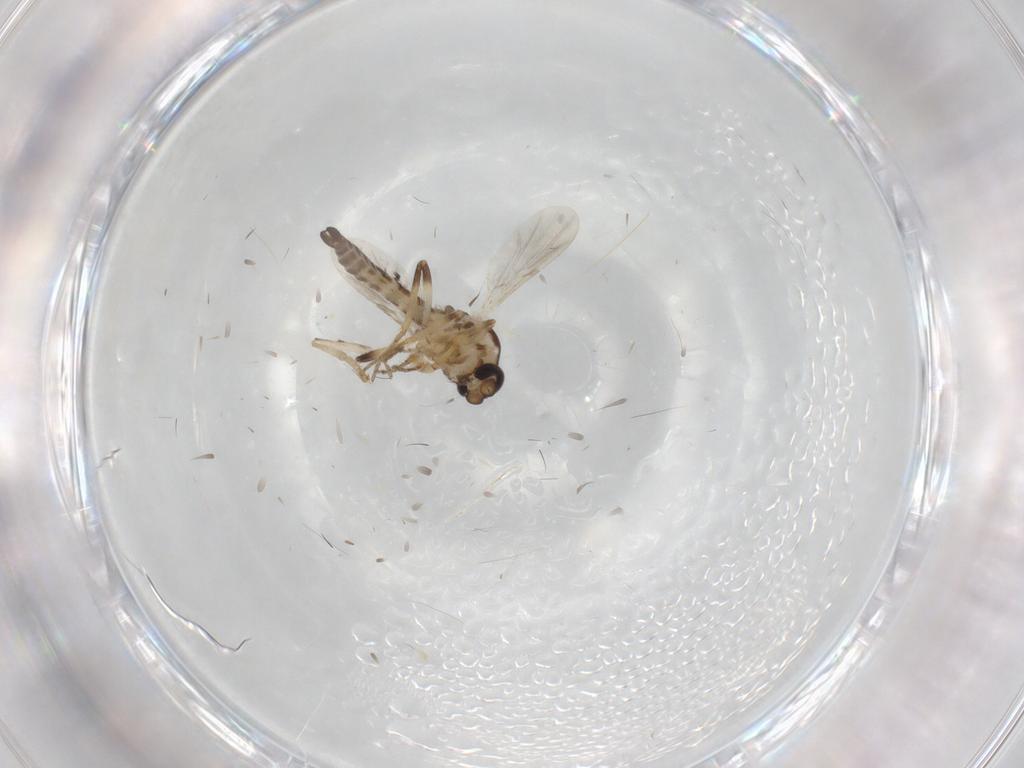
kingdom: Animalia
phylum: Arthropoda
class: Insecta
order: Diptera
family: Ceratopogonidae
